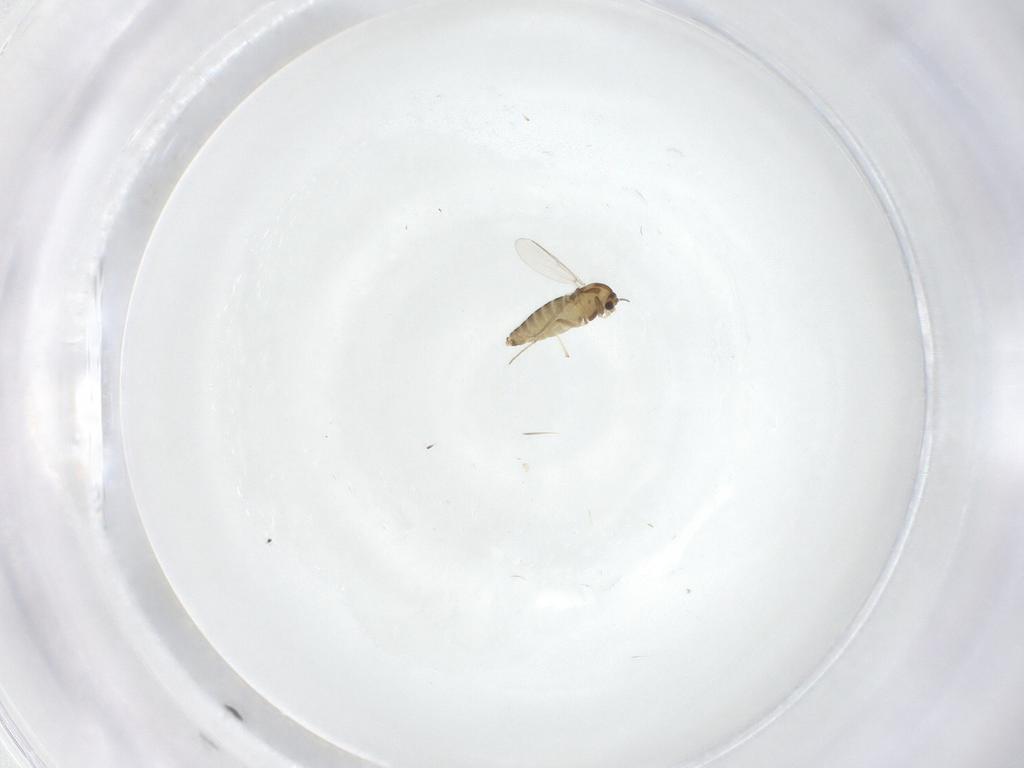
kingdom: Animalia
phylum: Arthropoda
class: Insecta
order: Diptera
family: Chironomidae
